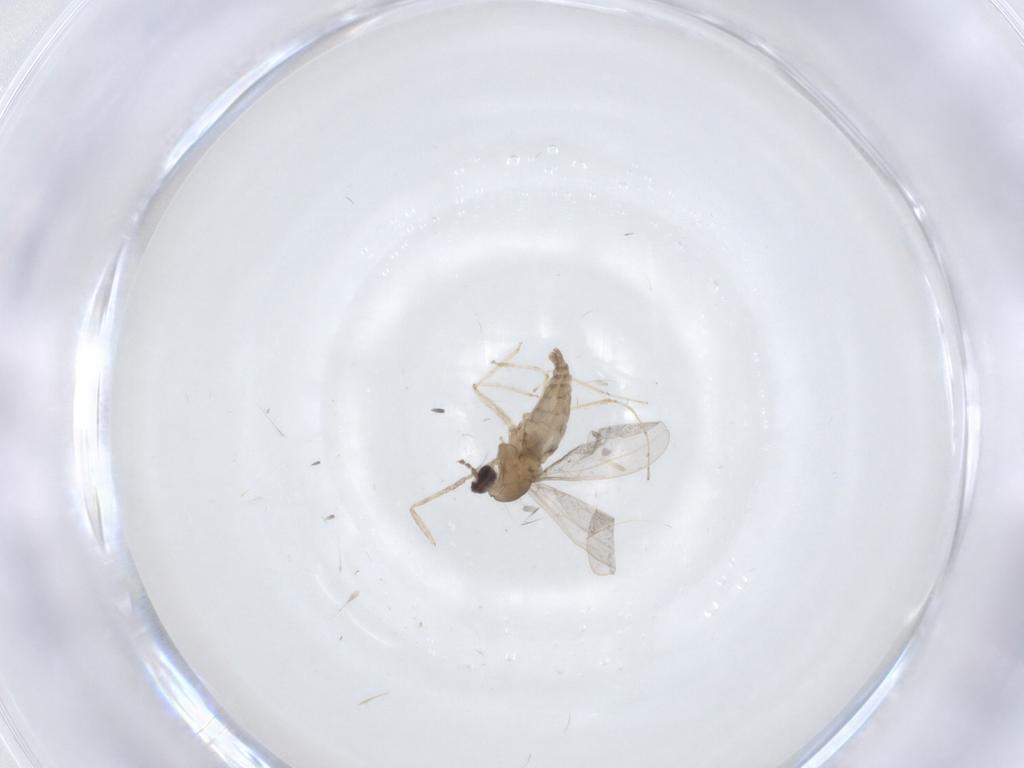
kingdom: Animalia
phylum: Arthropoda
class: Insecta
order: Diptera
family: Cecidomyiidae
